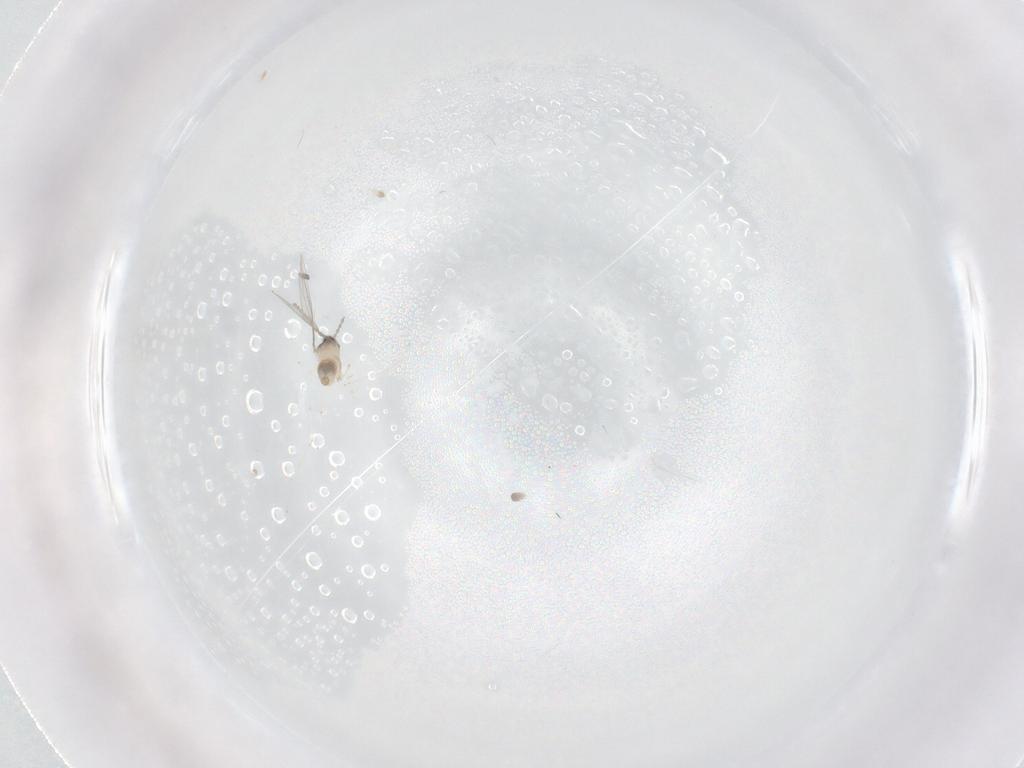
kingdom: Animalia
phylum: Arthropoda
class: Insecta
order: Diptera
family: Cecidomyiidae
